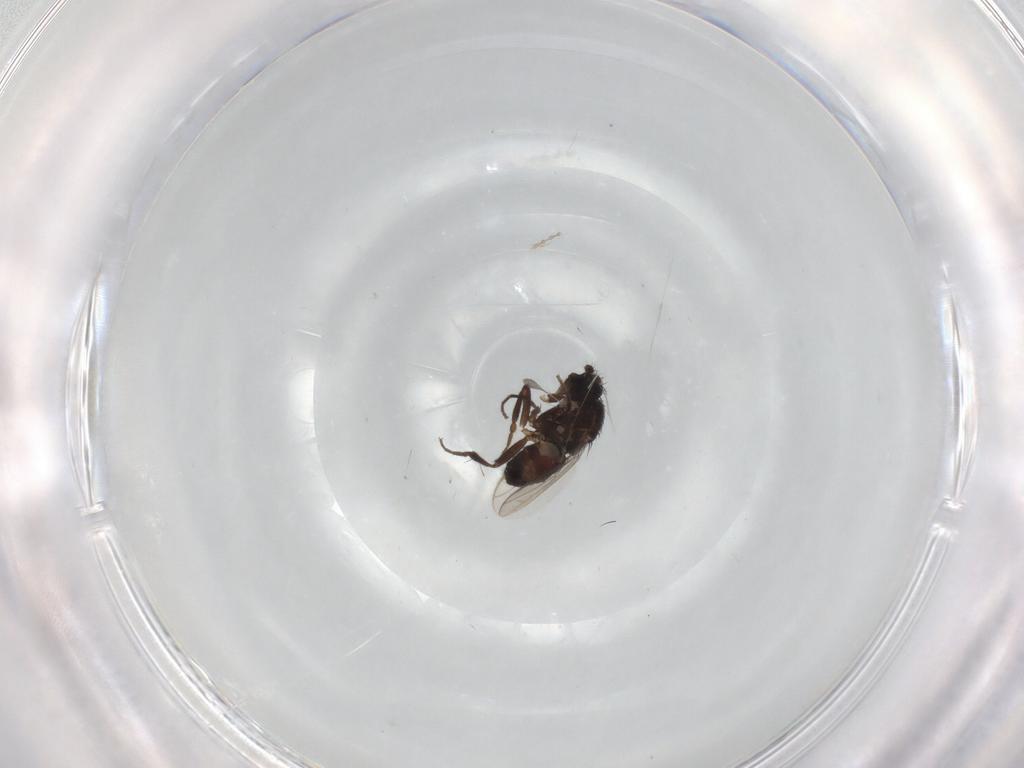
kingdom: Animalia
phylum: Arthropoda
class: Insecta
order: Diptera
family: Sphaeroceridae
